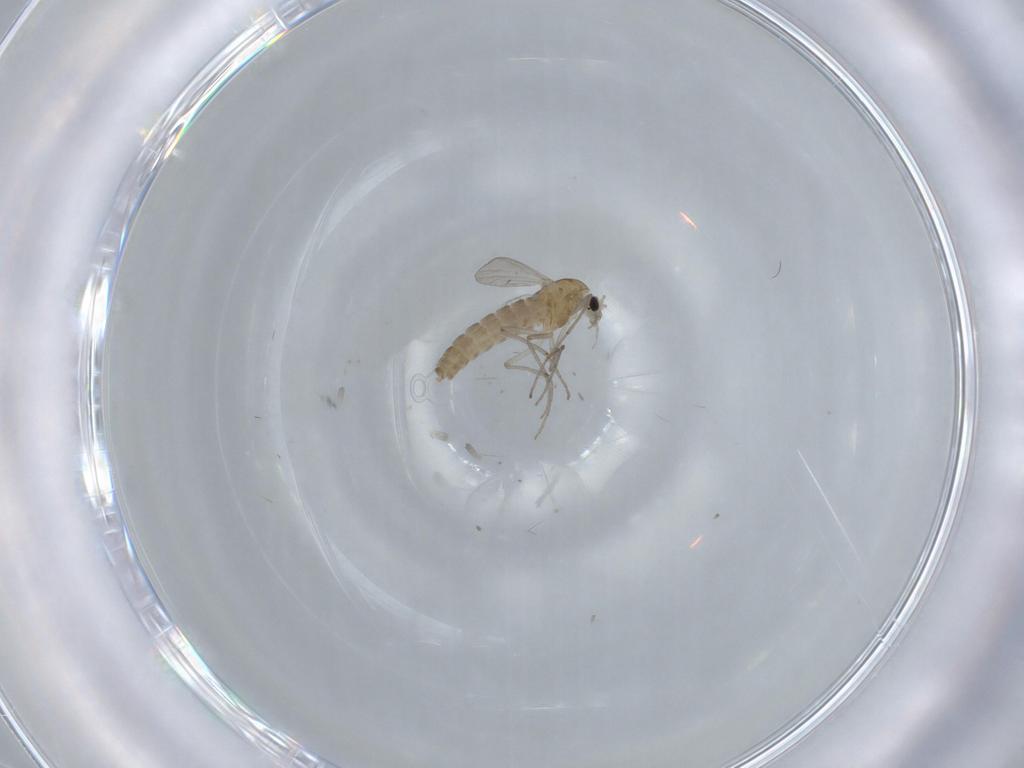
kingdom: Animalia
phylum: Arthropoda
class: Insecta
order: Diptera
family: Chironomidae
